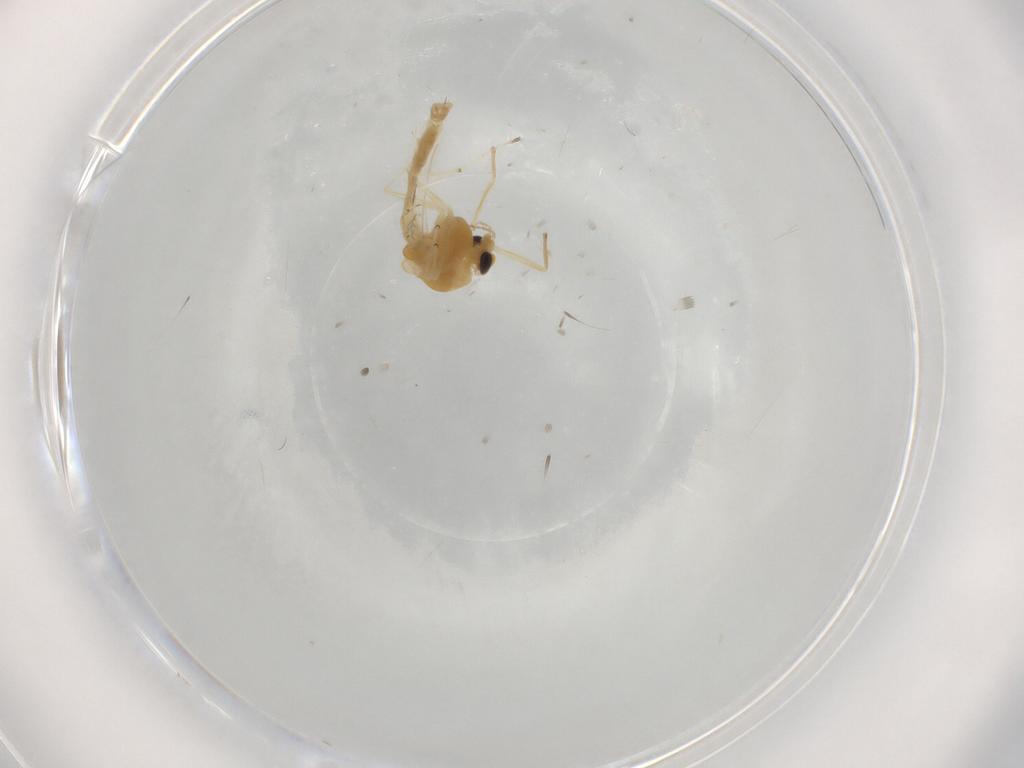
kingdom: Animalia
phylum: Arthropoda
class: Insecta
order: Diptera
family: Chironomidae
